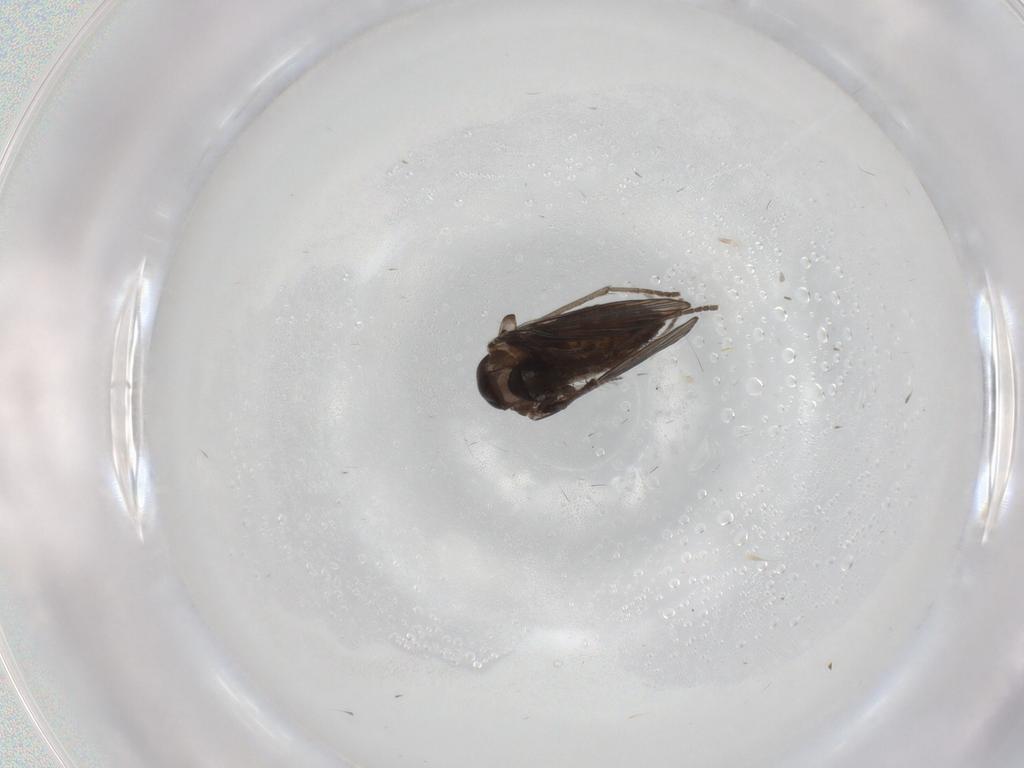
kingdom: Animalia
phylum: Arthropoda
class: Insecta
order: Diptera
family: Psychodidae
